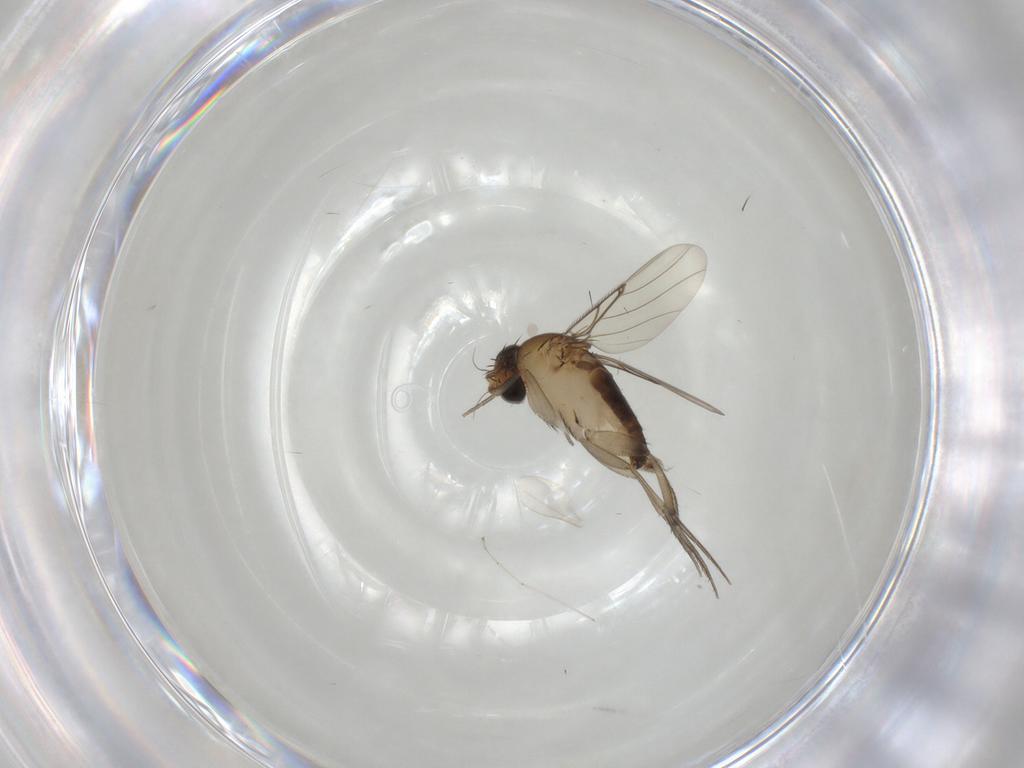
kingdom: Animalia
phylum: Arthropoda
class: Insecta
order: Diptera
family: Phoridae
